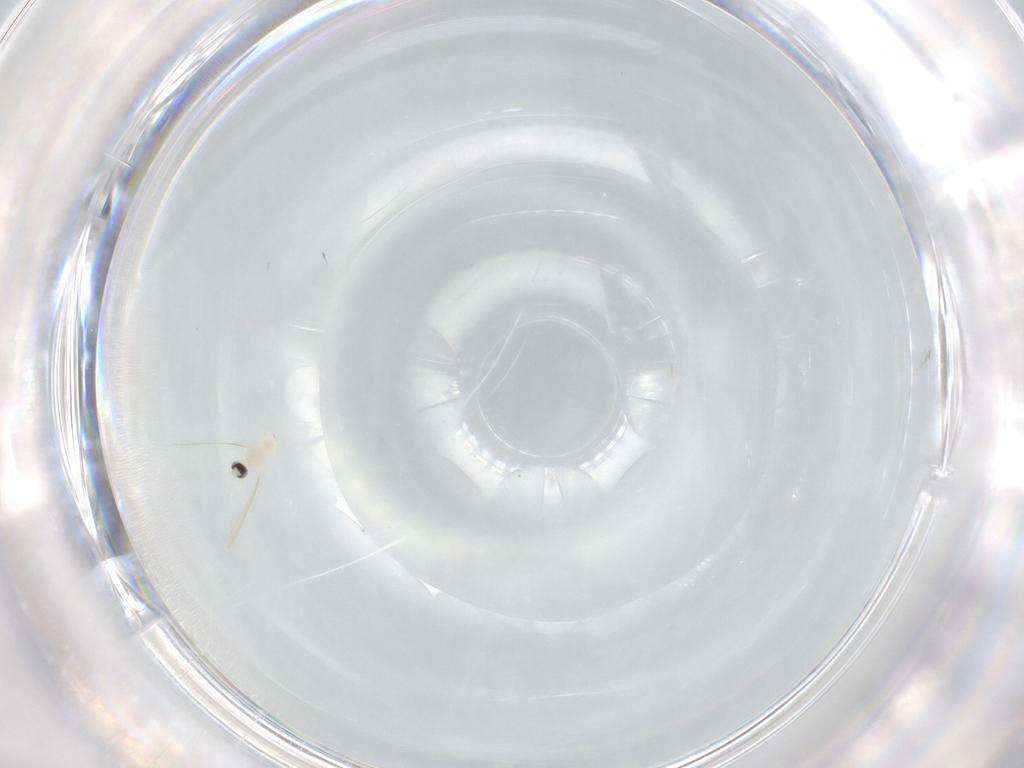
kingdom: Animalia
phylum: Arthropoda
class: Insecta
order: Diptera
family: Cecidomyiidae
